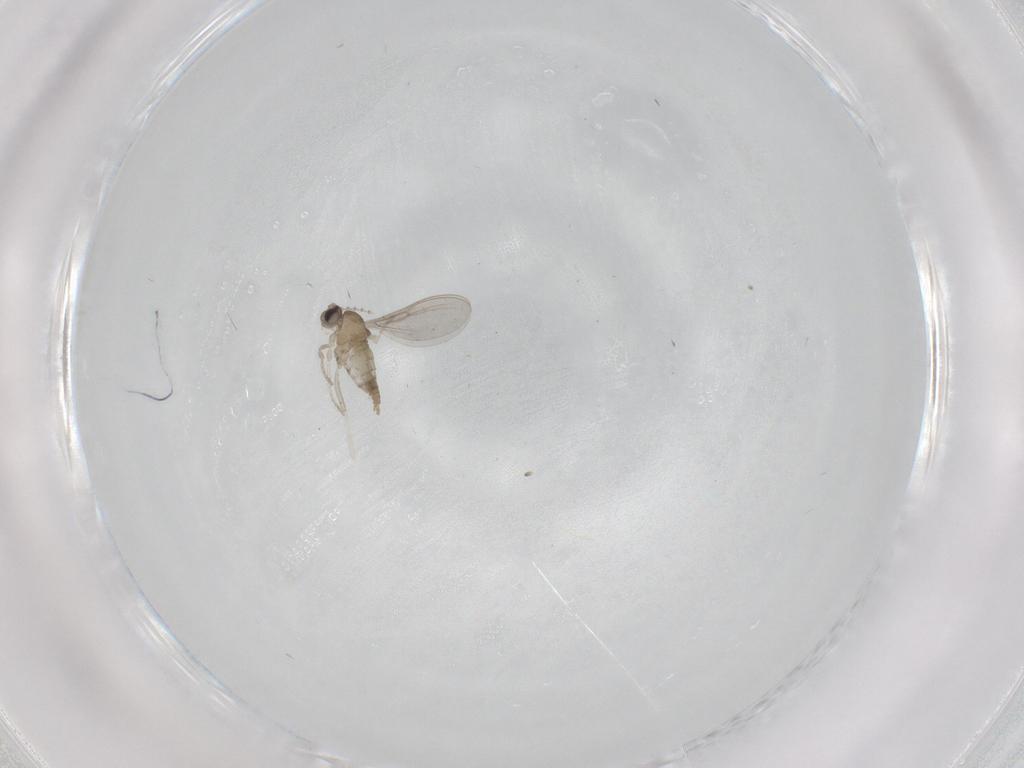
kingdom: Animalia
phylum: Arthropoda
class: Insecta
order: Diptera
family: Cecidomyiidae
